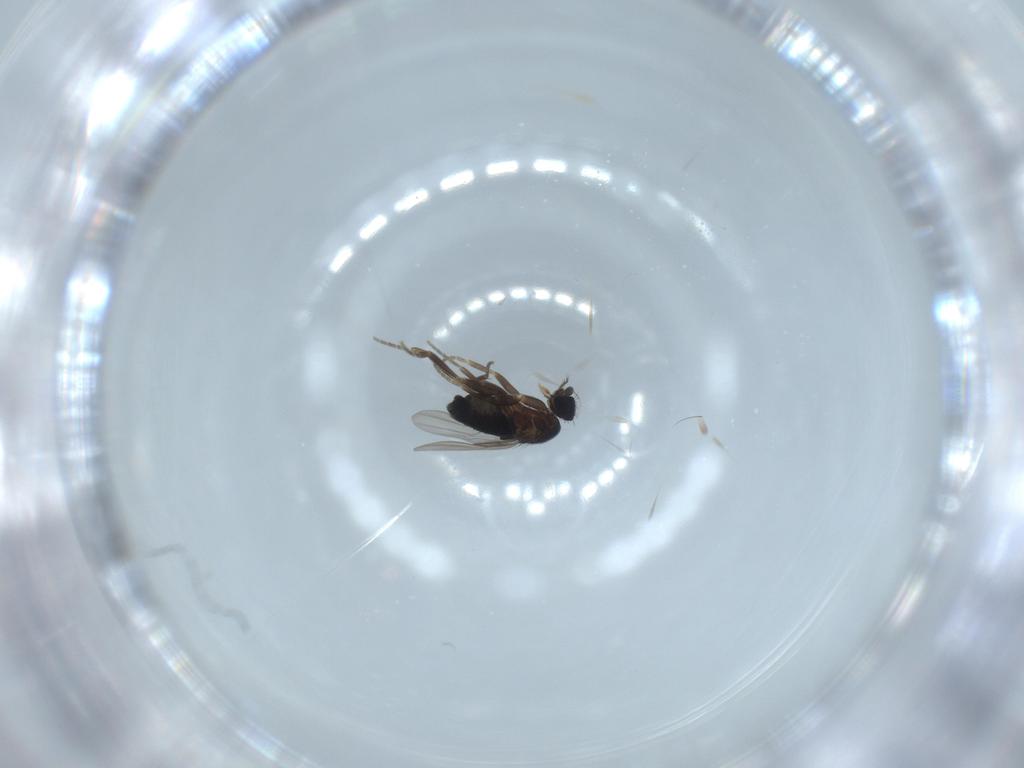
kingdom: Animalia
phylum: Arthropoda
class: Insecta
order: Diptera
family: Phoridae
